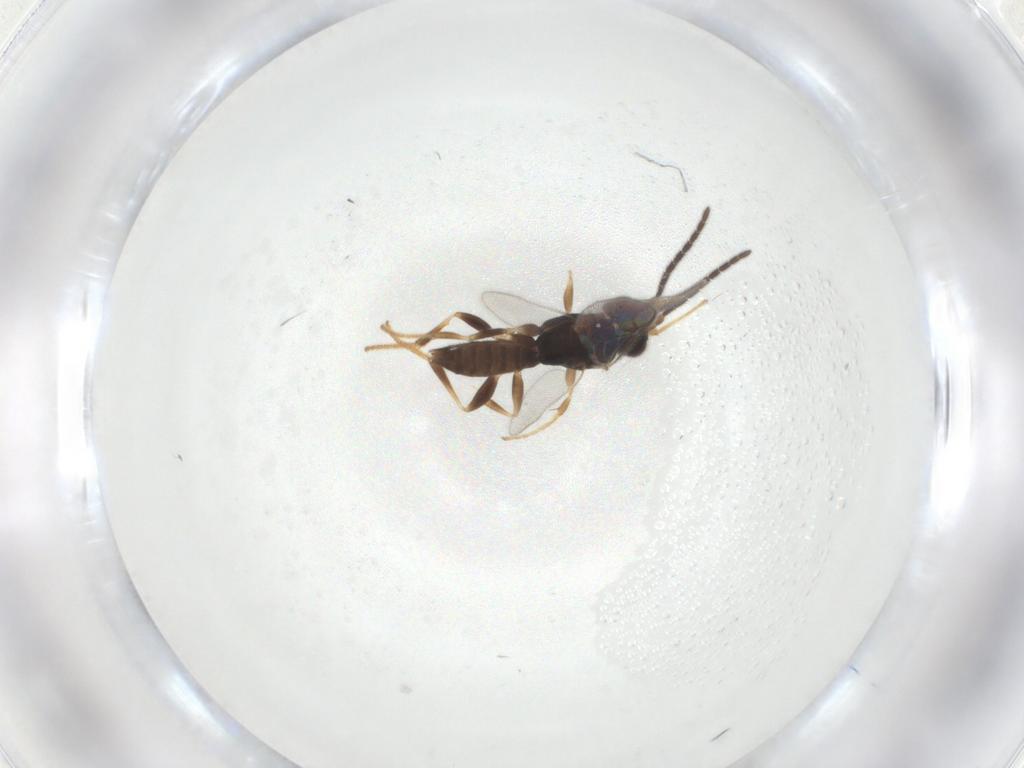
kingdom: Animalia
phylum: Arthropoda
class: Insecta
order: Hymenoptera
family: Dryinidae
